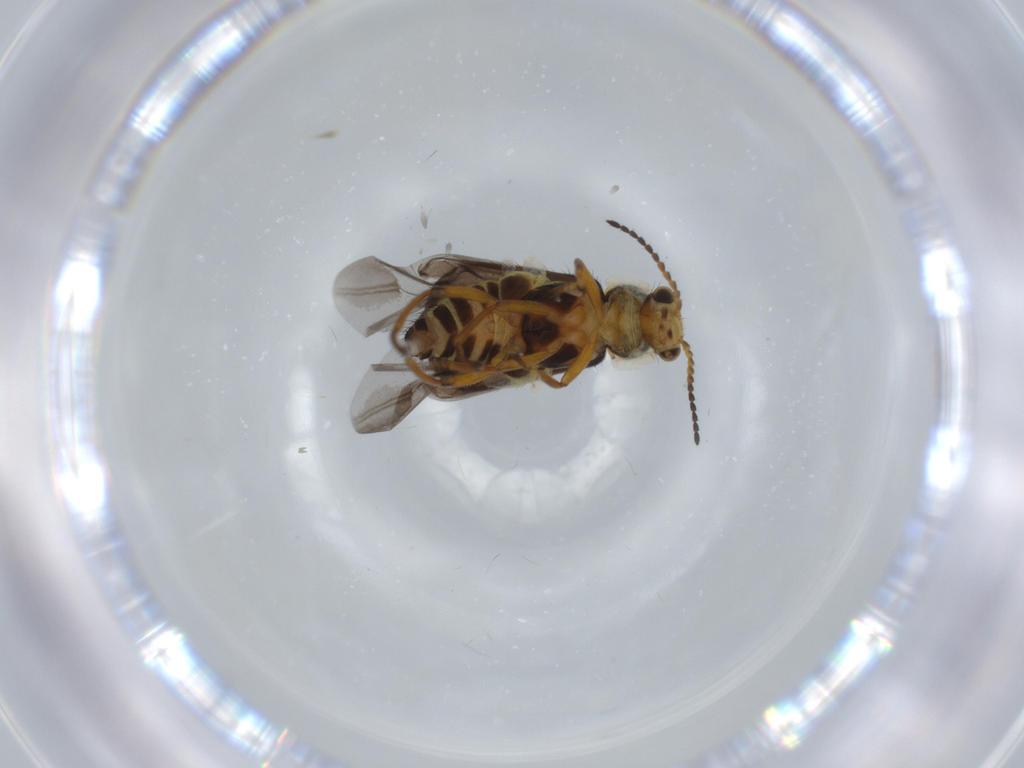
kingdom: Animalia
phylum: Arthropoda
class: Insecta
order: Coleoptera
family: Melyridae
